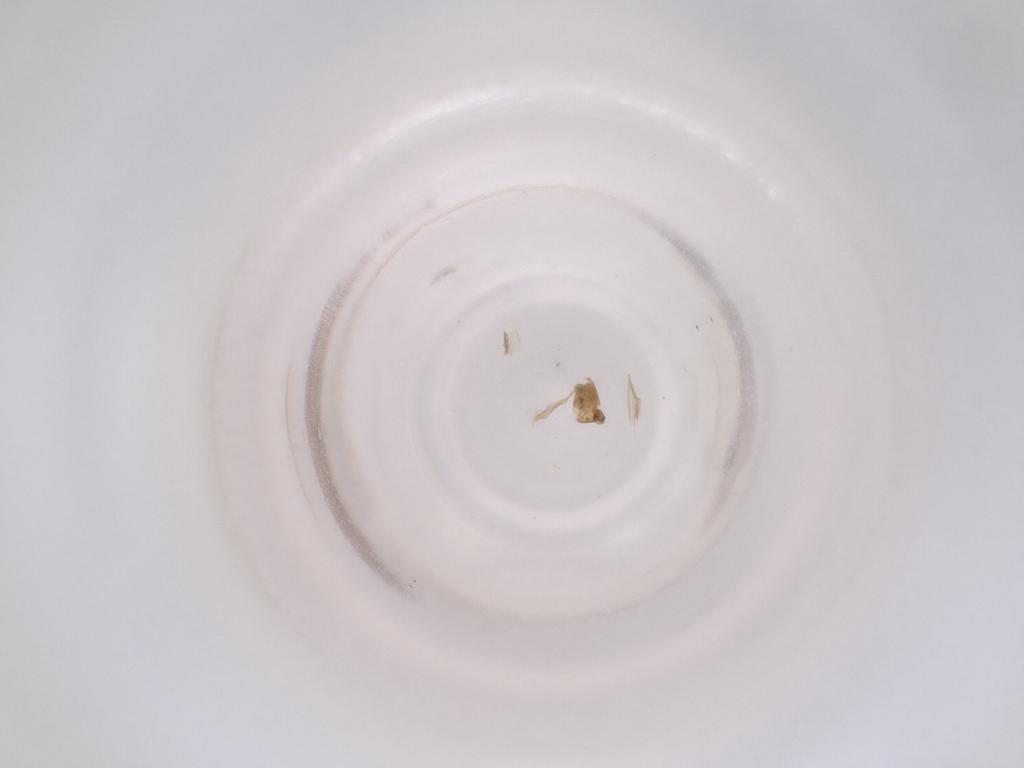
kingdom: Animalia
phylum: Arthropoda
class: Insecta
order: Diptera
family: Cecidomyiidae
